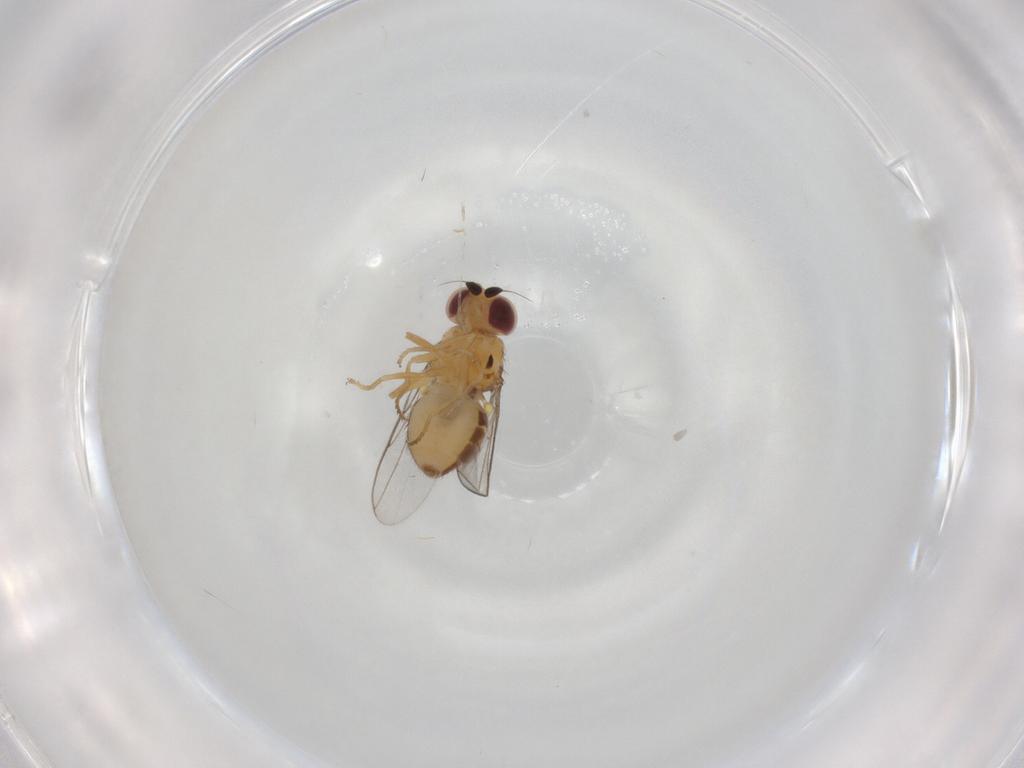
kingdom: Animalia
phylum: Arthropoda
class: Insecta
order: Diptera
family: Chloropidae
